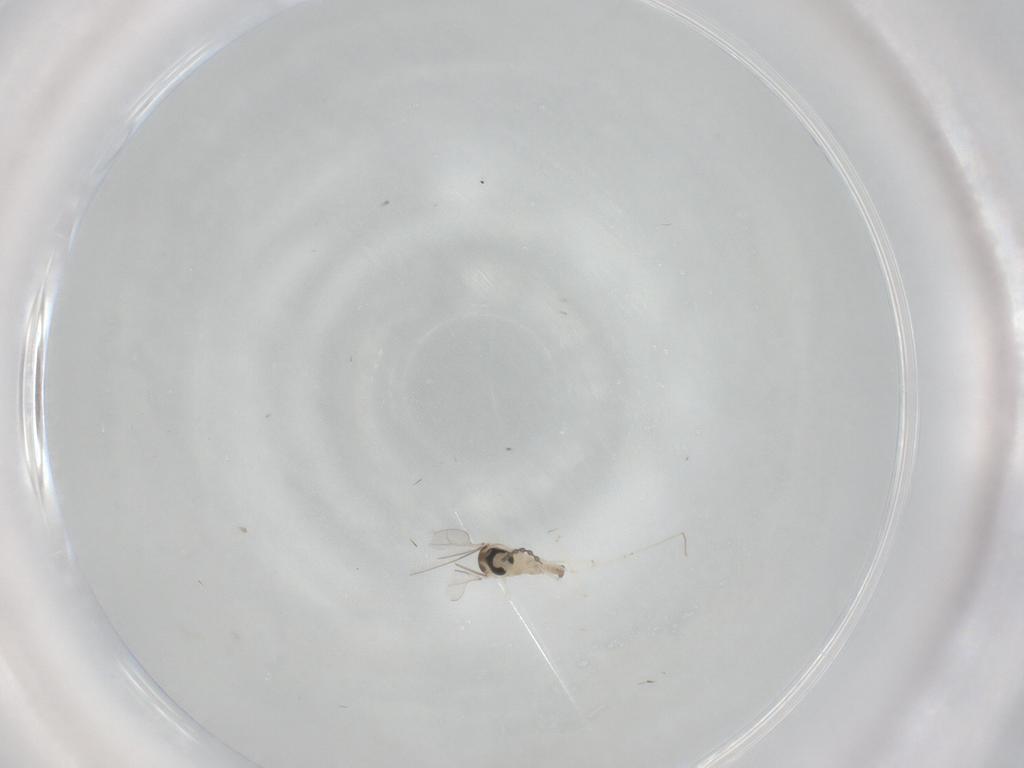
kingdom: Animalia
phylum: Arthropoda
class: Insecta
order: Diptera
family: Cecidomyiidae
